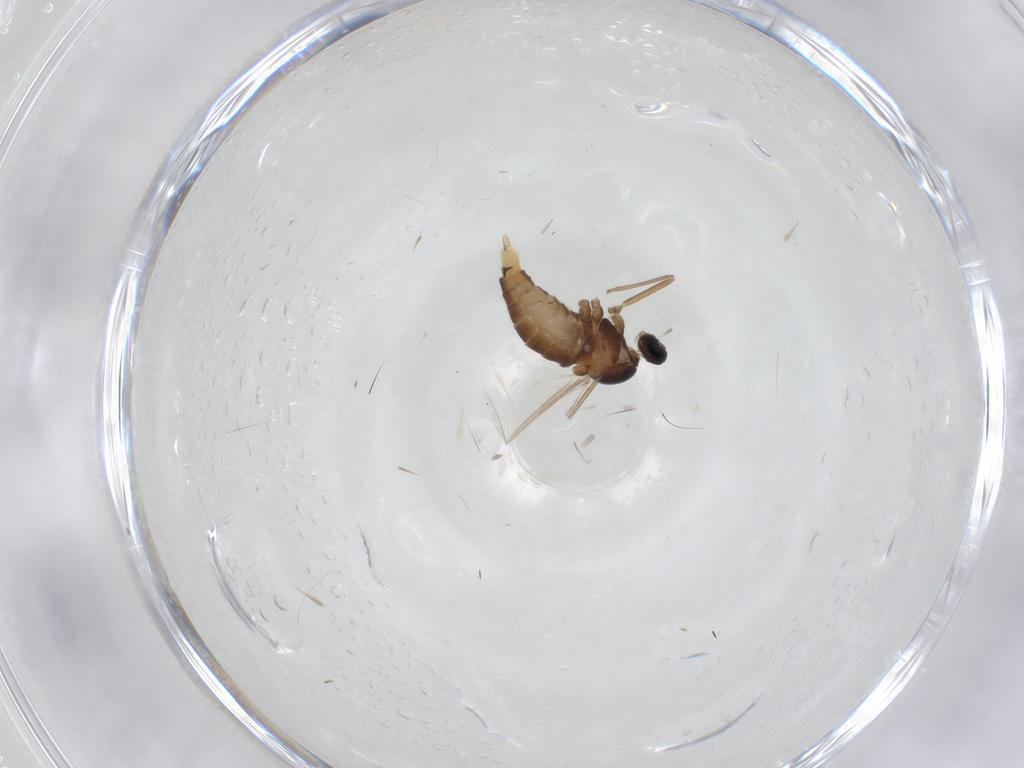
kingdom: Animalia
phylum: Arthropoda
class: Insecta
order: Diptera
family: Cecidomyiidae
